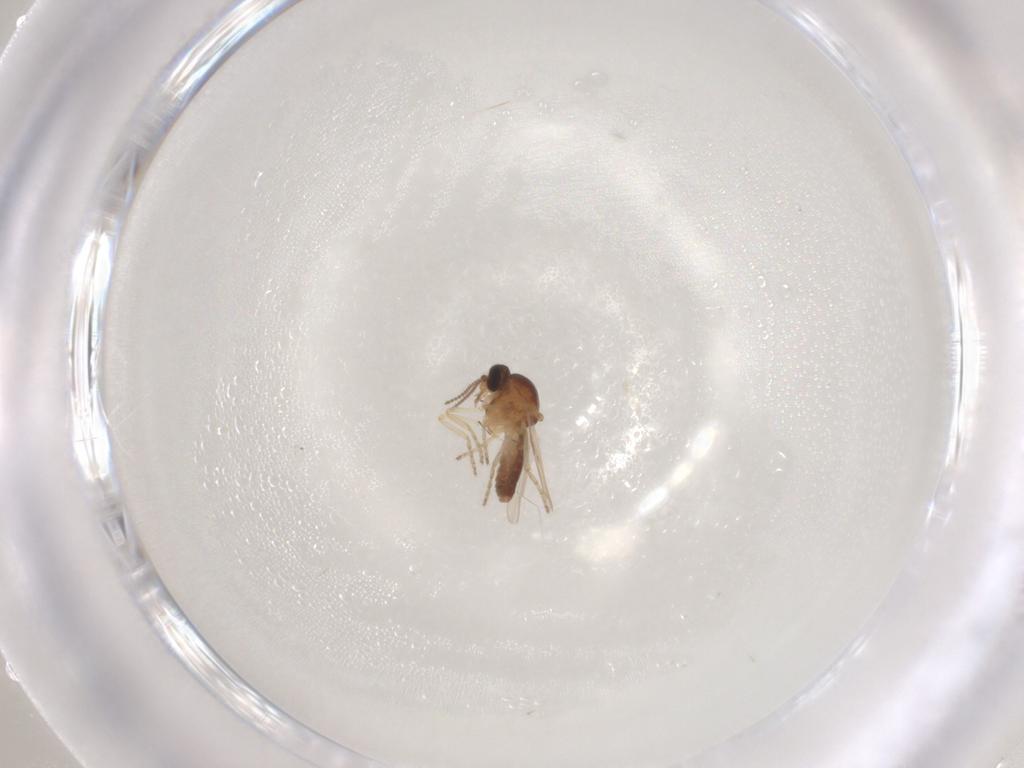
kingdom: Animalia
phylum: Arthropoda
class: Insecta
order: Diptera
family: Ceratopogonidae
